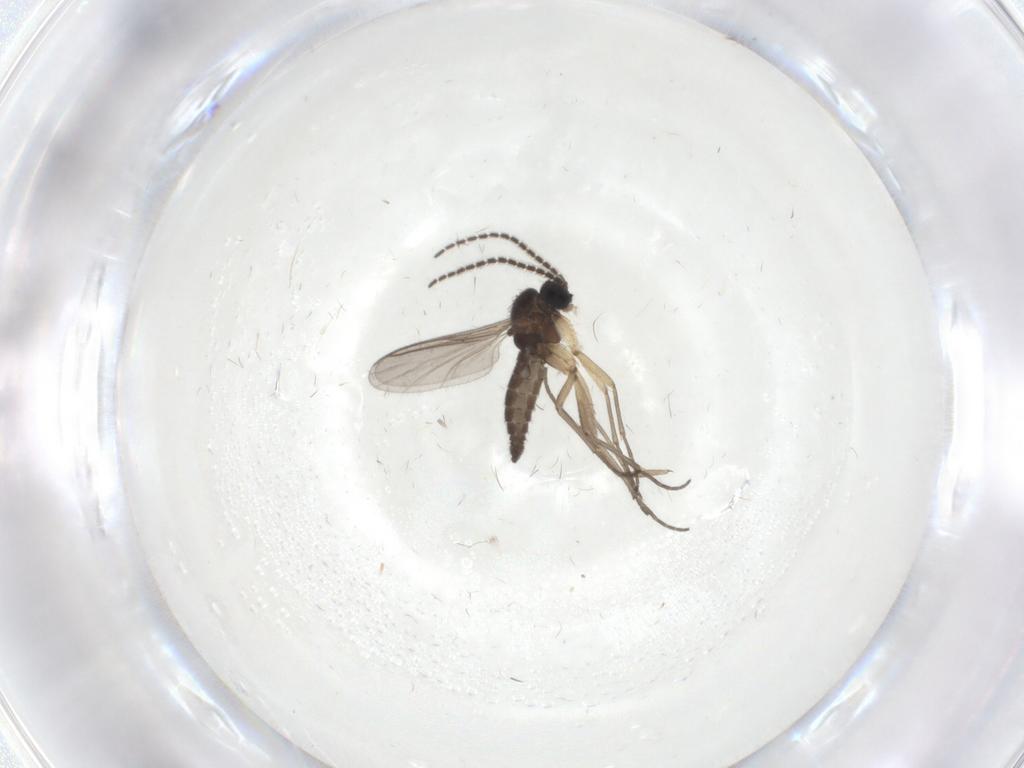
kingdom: Animalia
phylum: Arthropoda
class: Insecta
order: Diptera
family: Sciaridae
